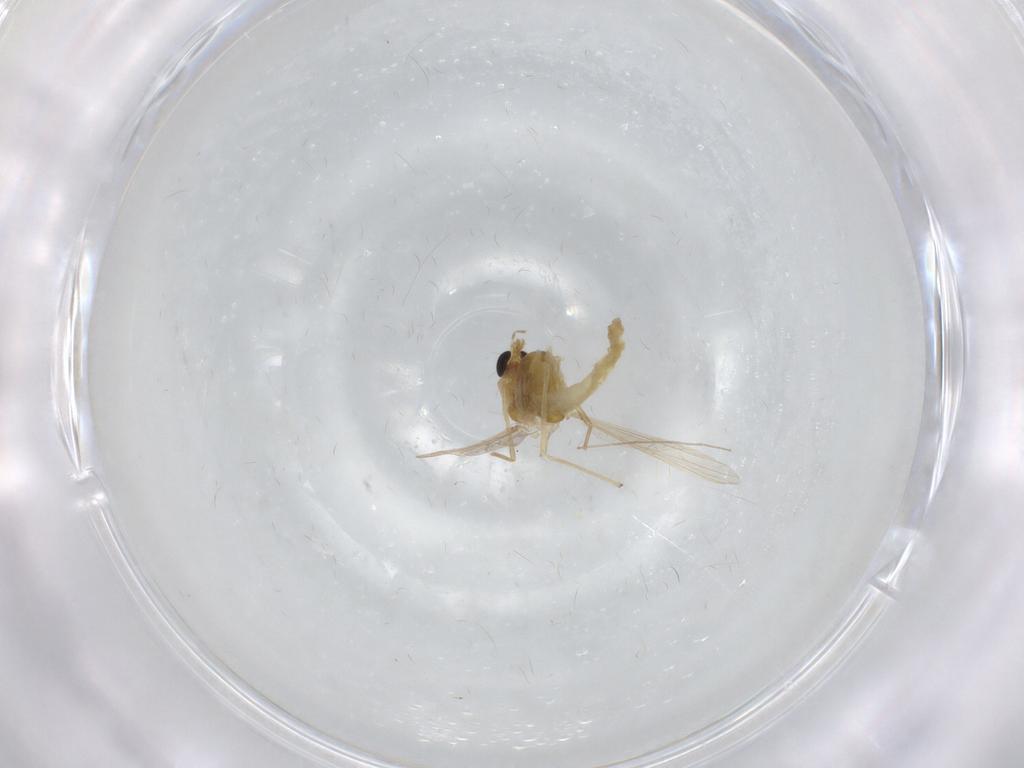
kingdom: Animalia
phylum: Arthropoda
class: Insecta
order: Diptera
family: Chironomidae
